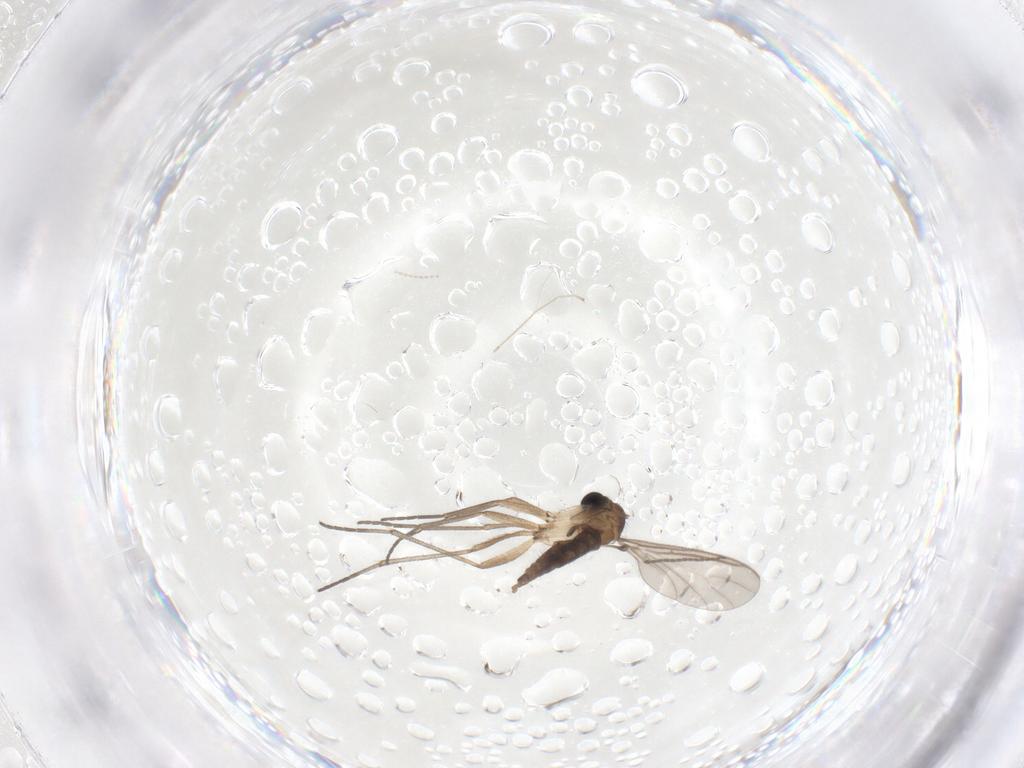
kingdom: Animalia
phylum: Arthropoda
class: Insecta
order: Diptera
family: Sciaridae
